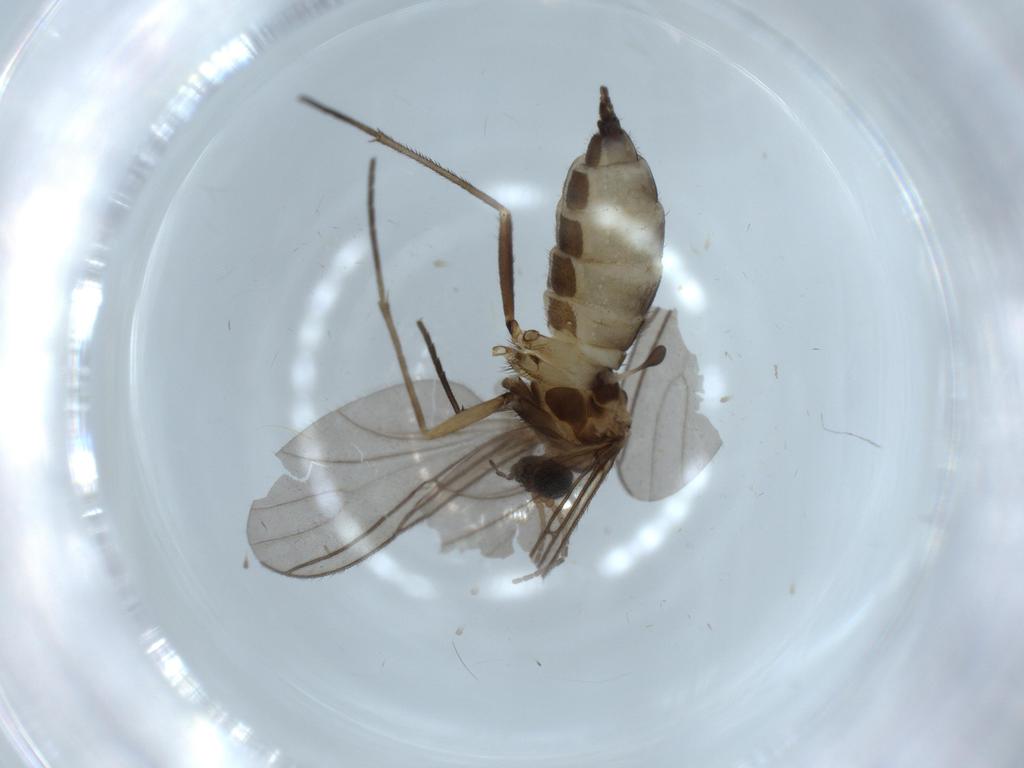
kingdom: Animalia
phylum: Arthropoda
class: Insecta
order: Diptera
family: Sciaridae
